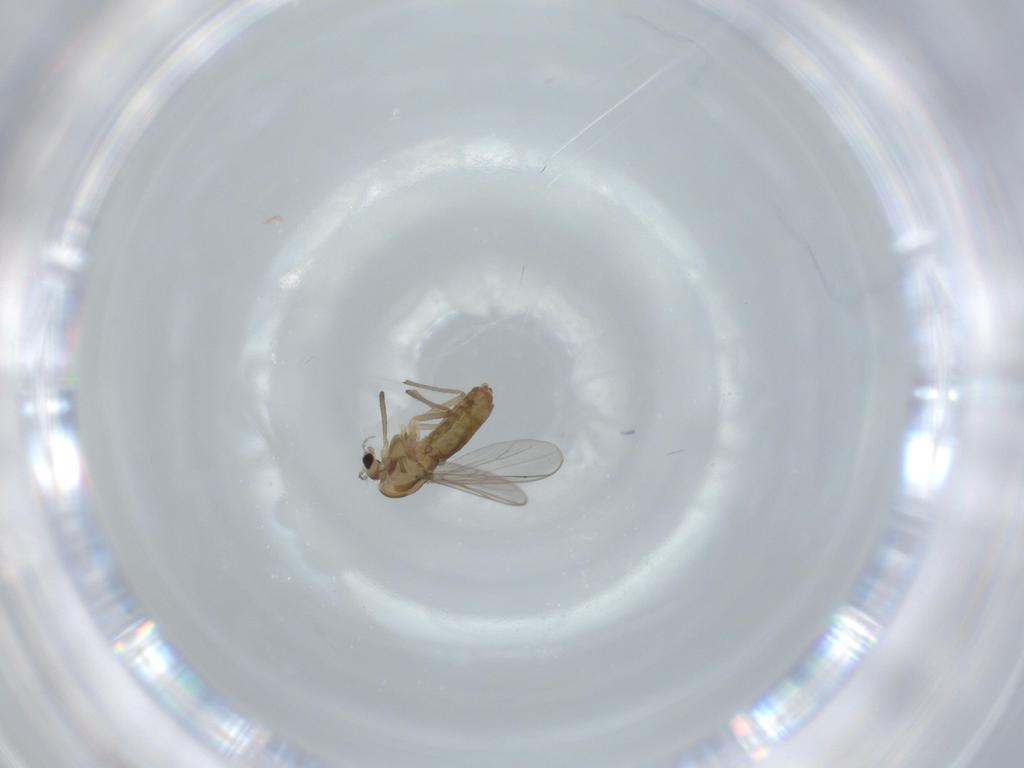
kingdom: Animalia
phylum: Arthropoda
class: Insecta
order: Diptera
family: Chironomidae
